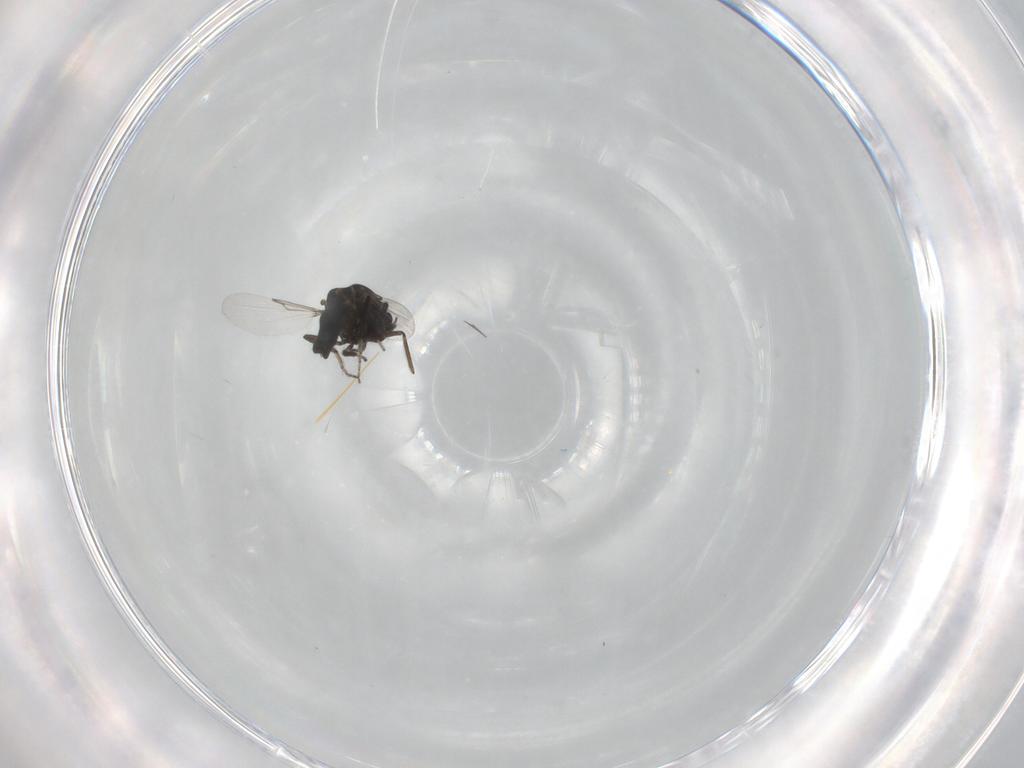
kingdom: Animalia
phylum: Arthropoda
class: Insecta
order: Diptera
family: Ceratopogonidae
